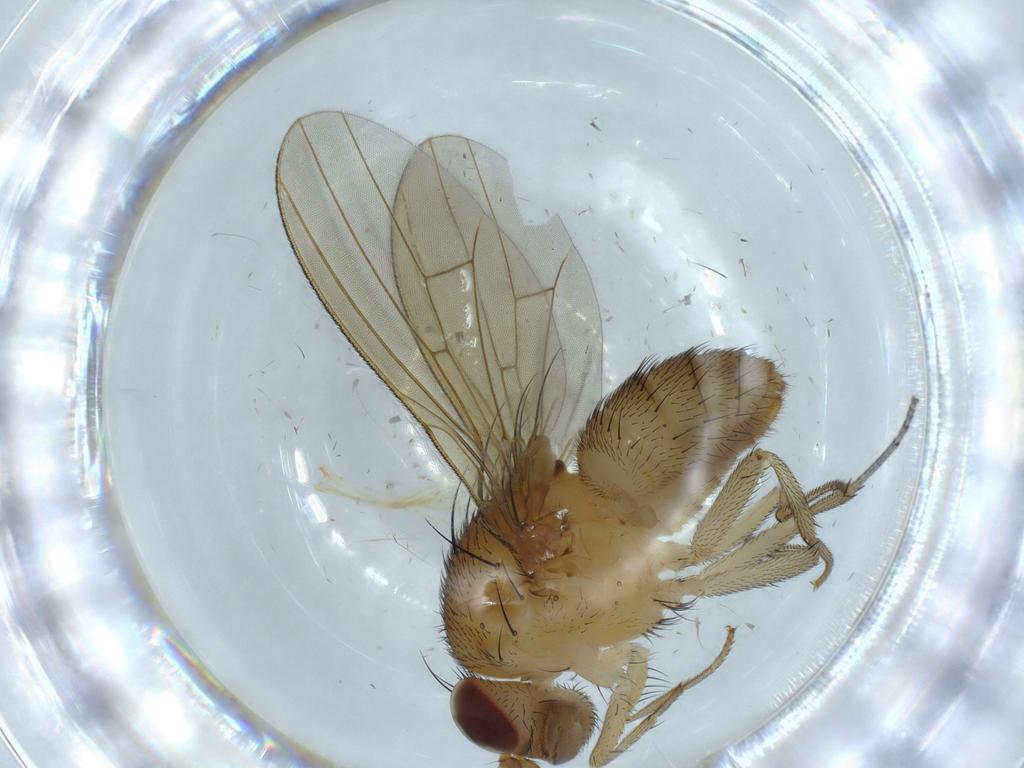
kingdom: Animalia
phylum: Arthropoda
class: Insecta
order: Diptera
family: Lauxaniidae
